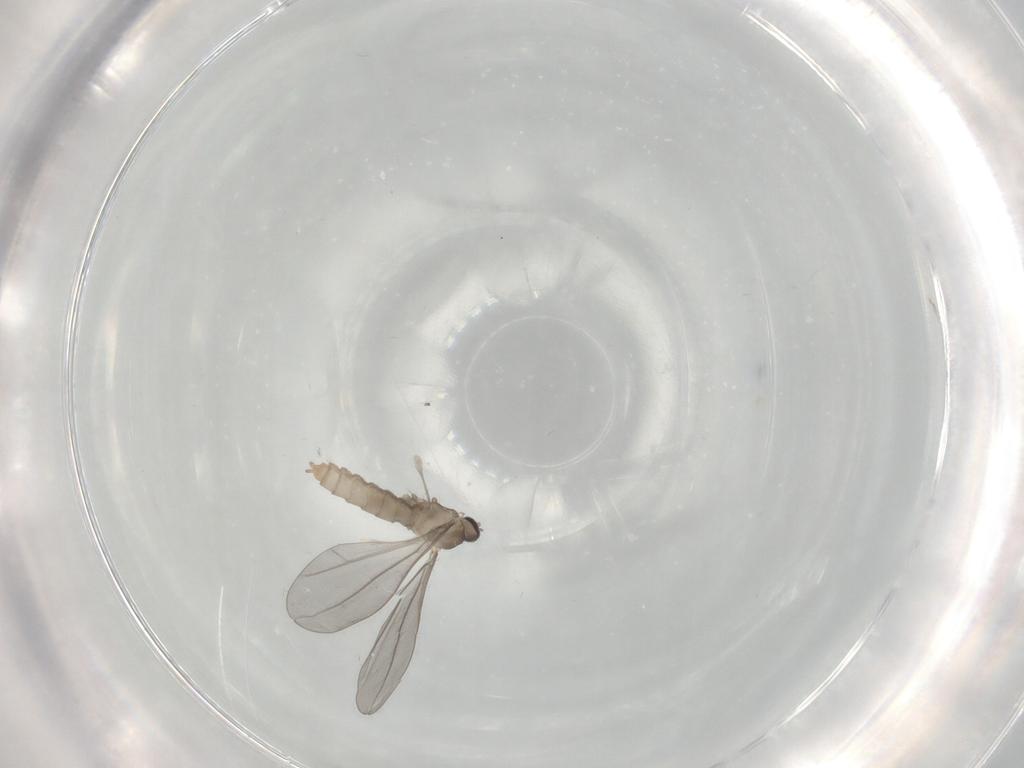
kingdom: Animalia
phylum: Arthropoda
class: Insecta
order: Diptera
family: Cecidomyiidae
